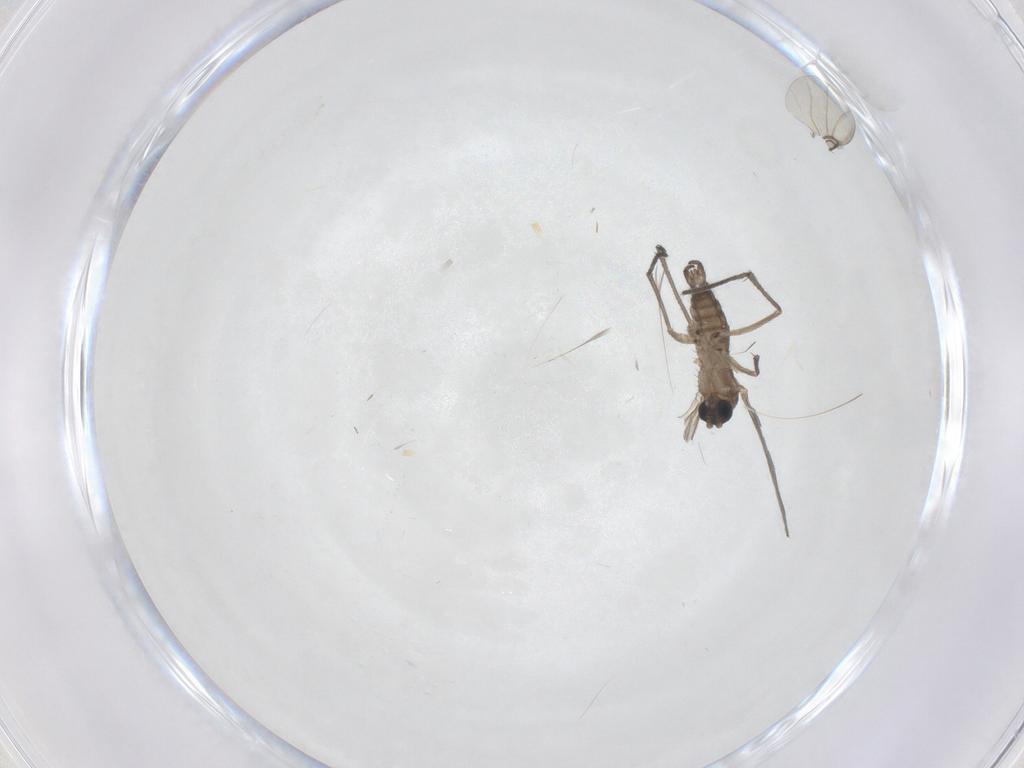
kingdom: Animalia
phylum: Arthropoda
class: Insecta
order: Diptera
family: Sciaridae
